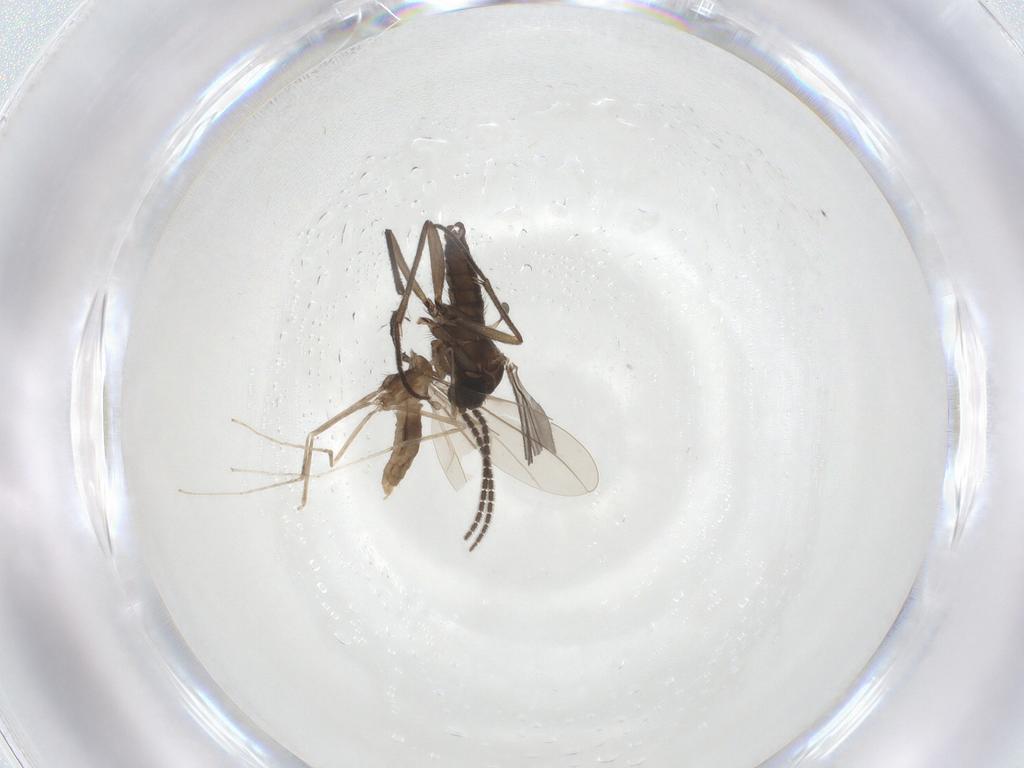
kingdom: Animalia
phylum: Arthropoda
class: Insecta
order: Diptera
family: Cecidomyiidae
